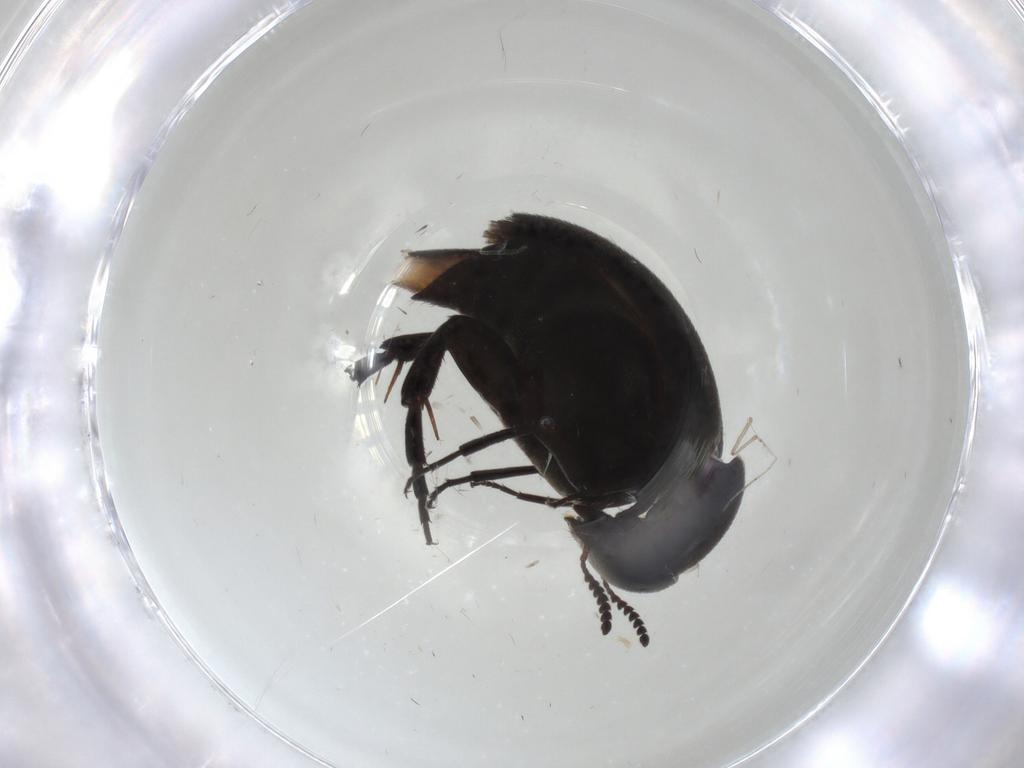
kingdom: Animalia
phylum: Arthropoda
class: Insecta
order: Coleoptera
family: Mordellidae
